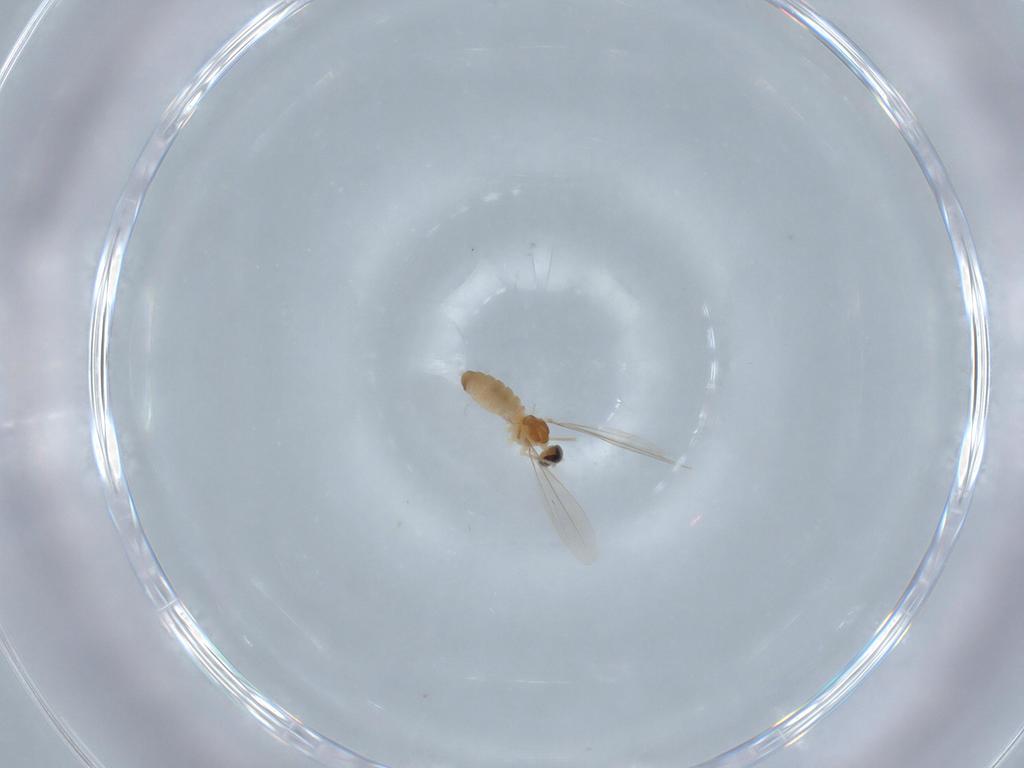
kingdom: Animalia
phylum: Arthropoda
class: Insecta
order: Diptera
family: Cecidomyiidae
